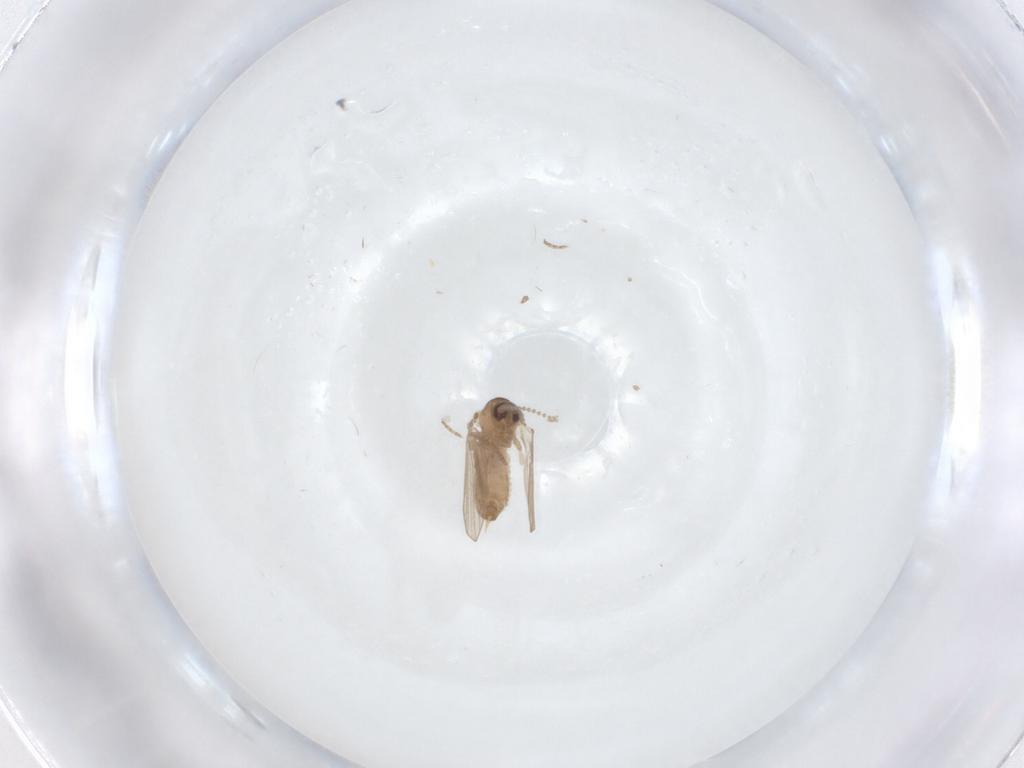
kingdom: Animalia
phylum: Arthropoda
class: Insecta
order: Diptera
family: Psychodidae
